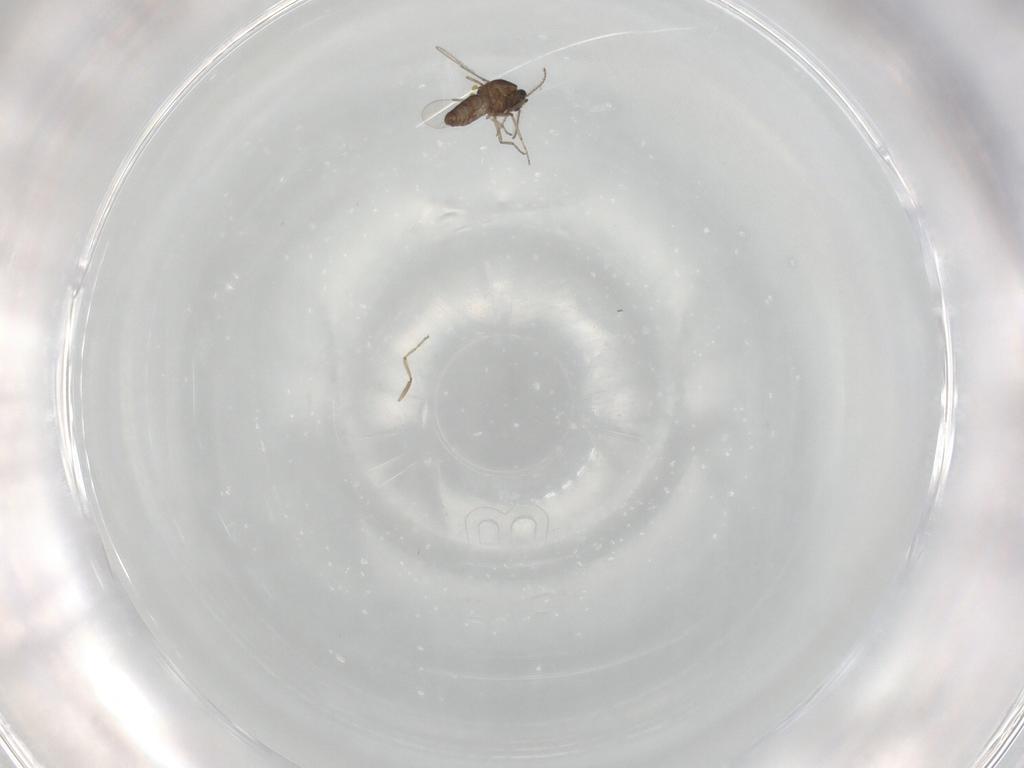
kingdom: Animalia
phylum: Arthropoda
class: Insecta
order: Diptera
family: Ceratopogonidae
